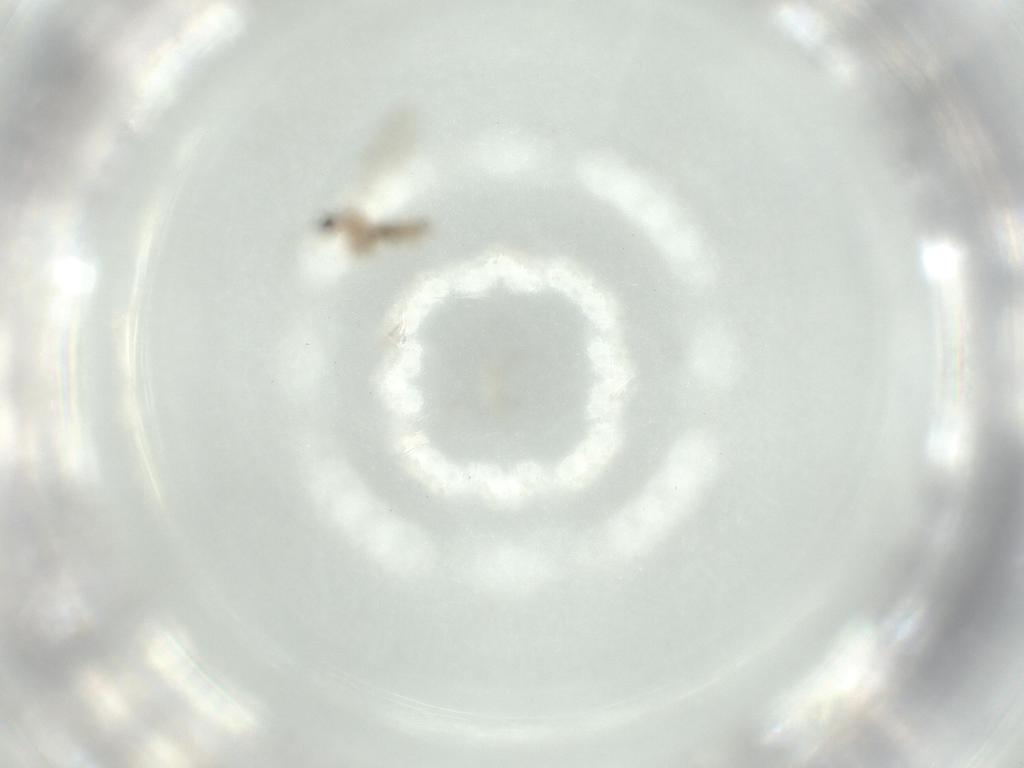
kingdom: Animalia
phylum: Arthropoda
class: Insecta
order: Diptera
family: Cecidomyiidae
